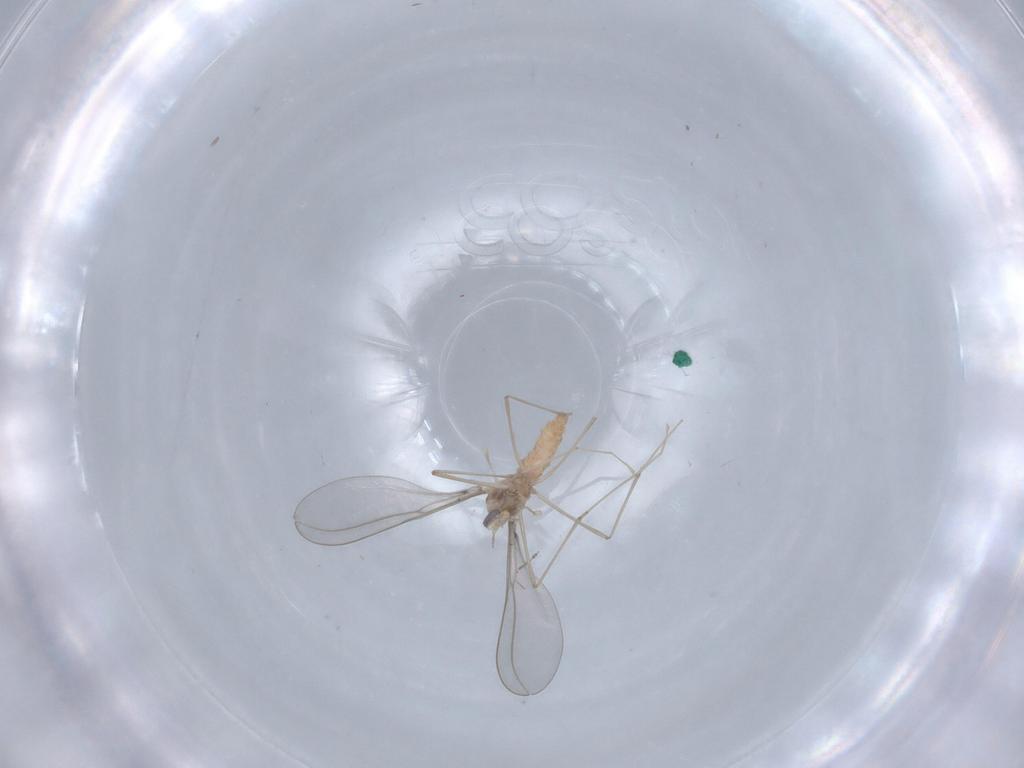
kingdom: Animalia
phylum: Arthropoda
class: Insecta
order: Diptera
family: Cecidomyiidae
